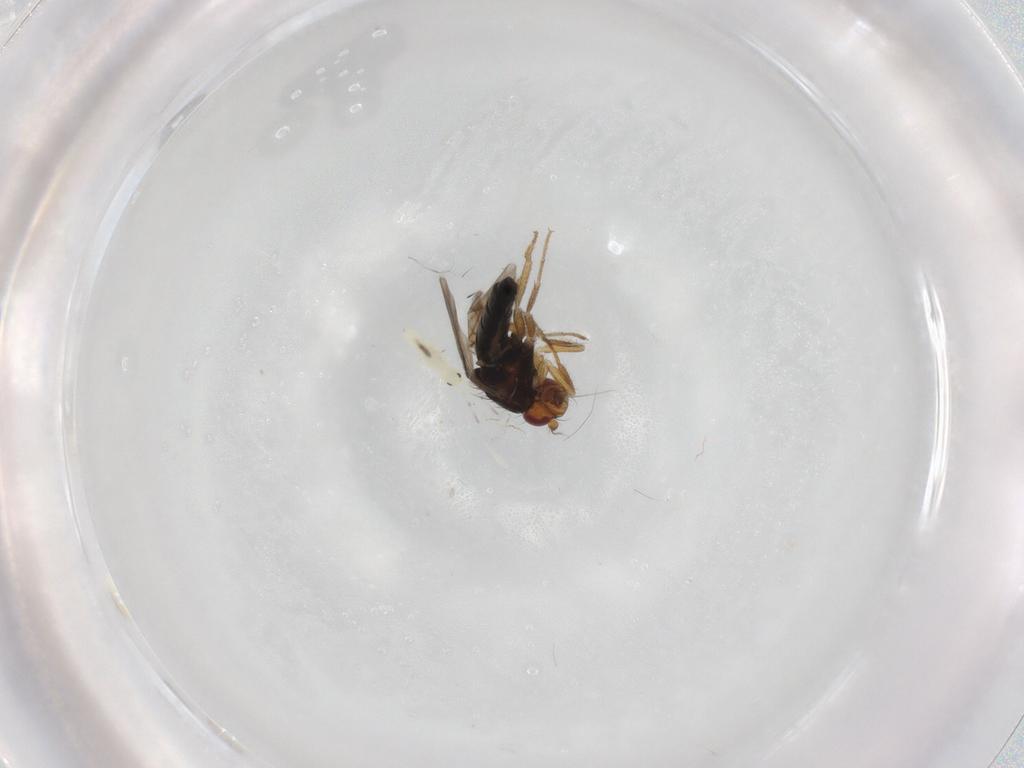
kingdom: Animalia
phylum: Arthropoda
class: Insecta
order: Diptera
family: Sphaeroceridae
